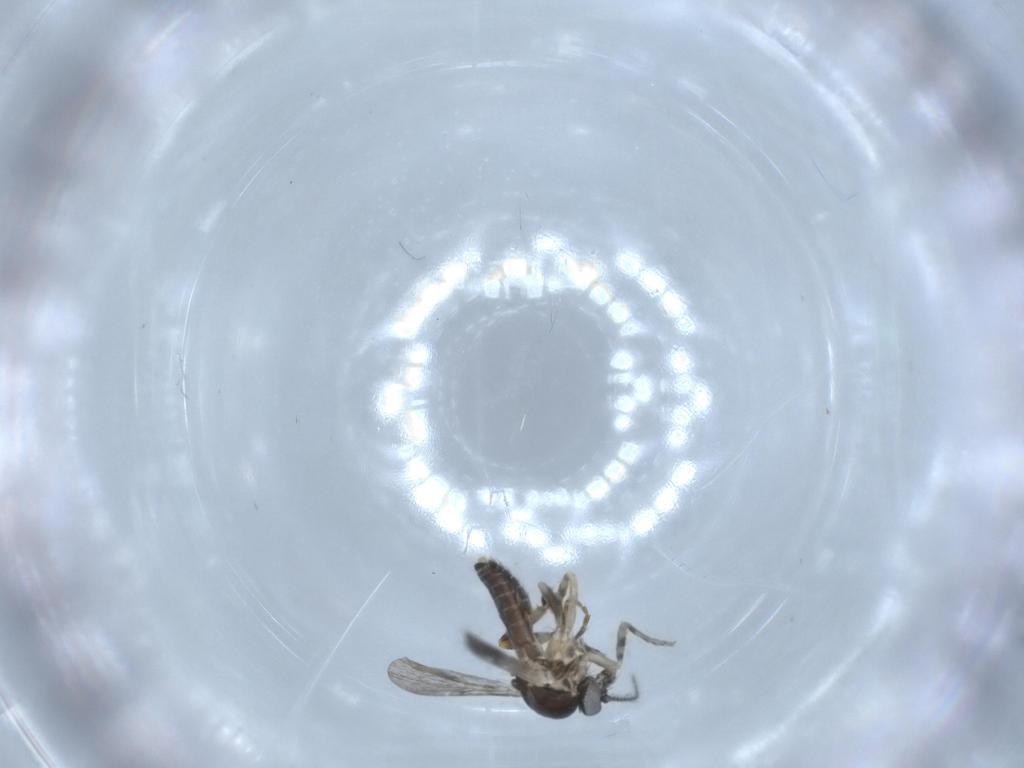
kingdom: Animalia
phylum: Arthropoda
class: Insecta
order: Diptera
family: Ceratopogonidae
